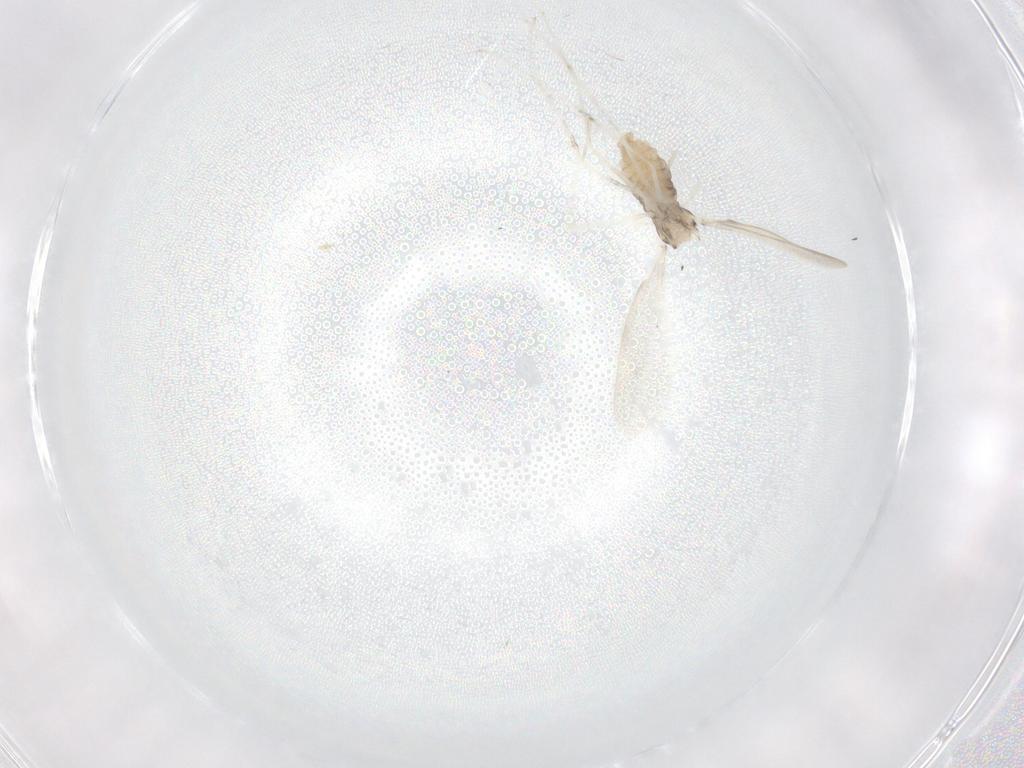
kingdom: Animalia
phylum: Arthropoda
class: Insecta
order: Diptera
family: Cecidomyiidae
